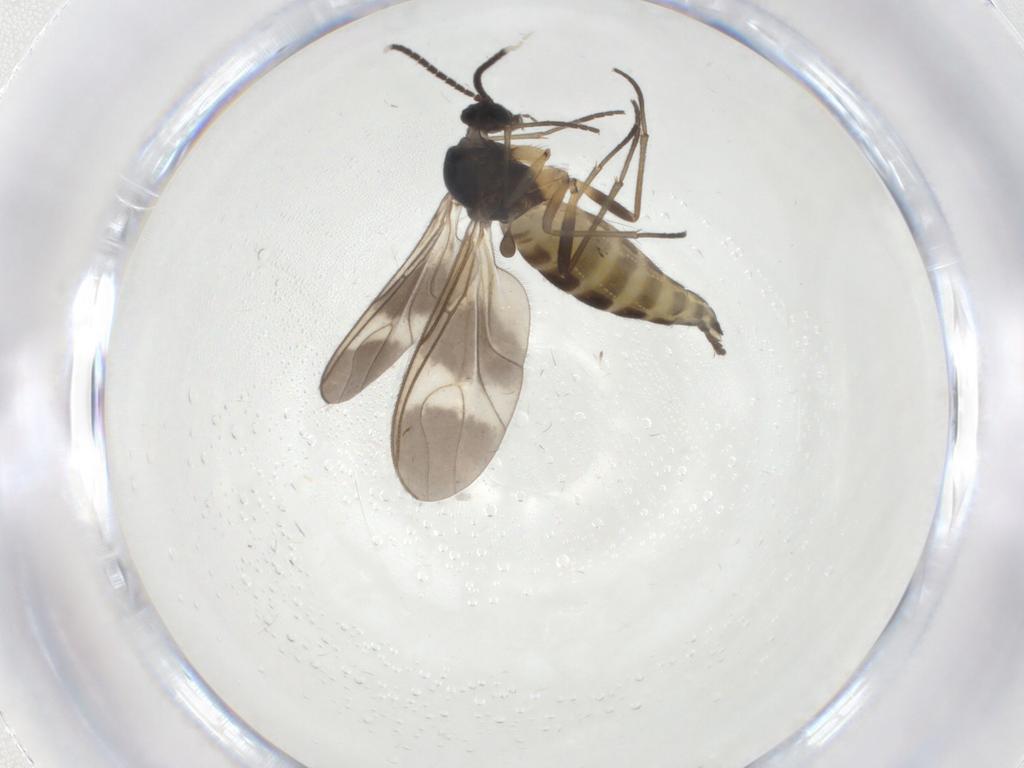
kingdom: Animalia
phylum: Arthropoda
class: Insecta
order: Diptera
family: Sciaridae
